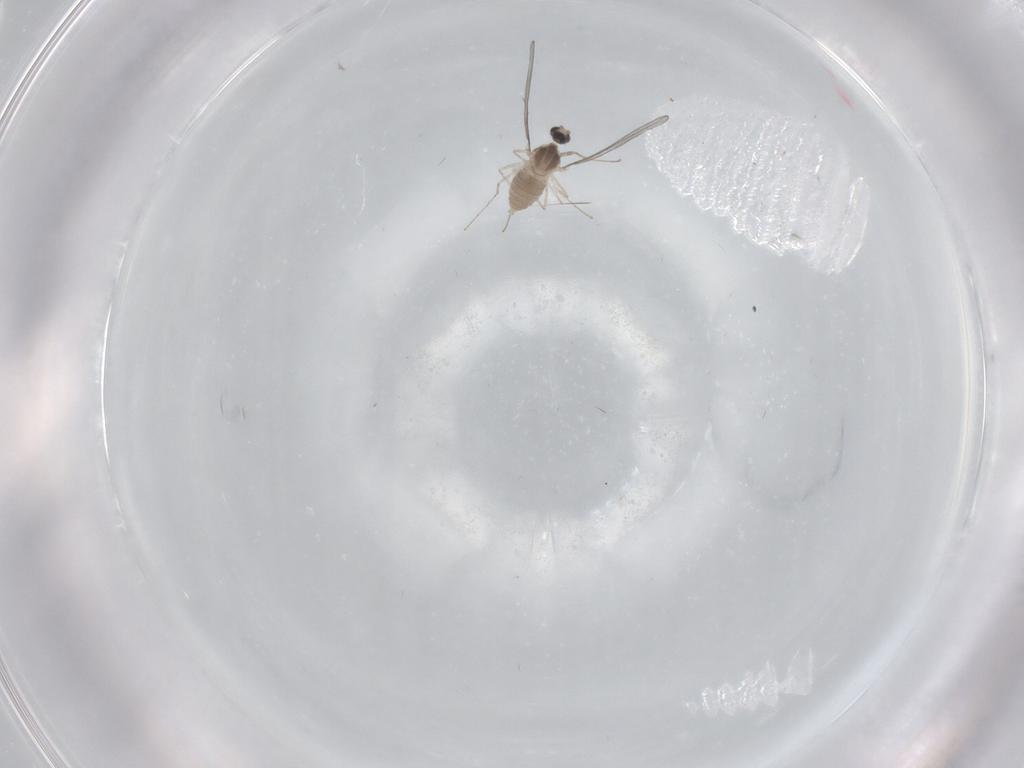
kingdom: Animalia
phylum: Arthropoda
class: Insecta
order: Diptera
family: Cecidomyiidae
